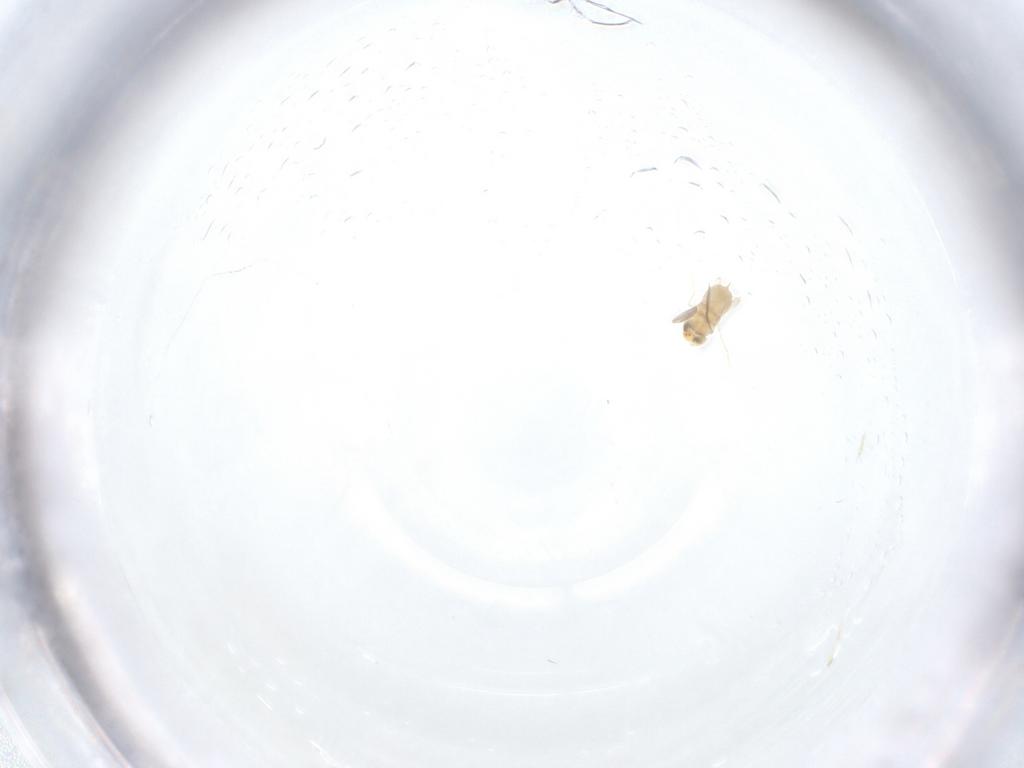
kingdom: Animalia
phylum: Arthropoda
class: Insecta
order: Hymenoptera
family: Aphelinidae
